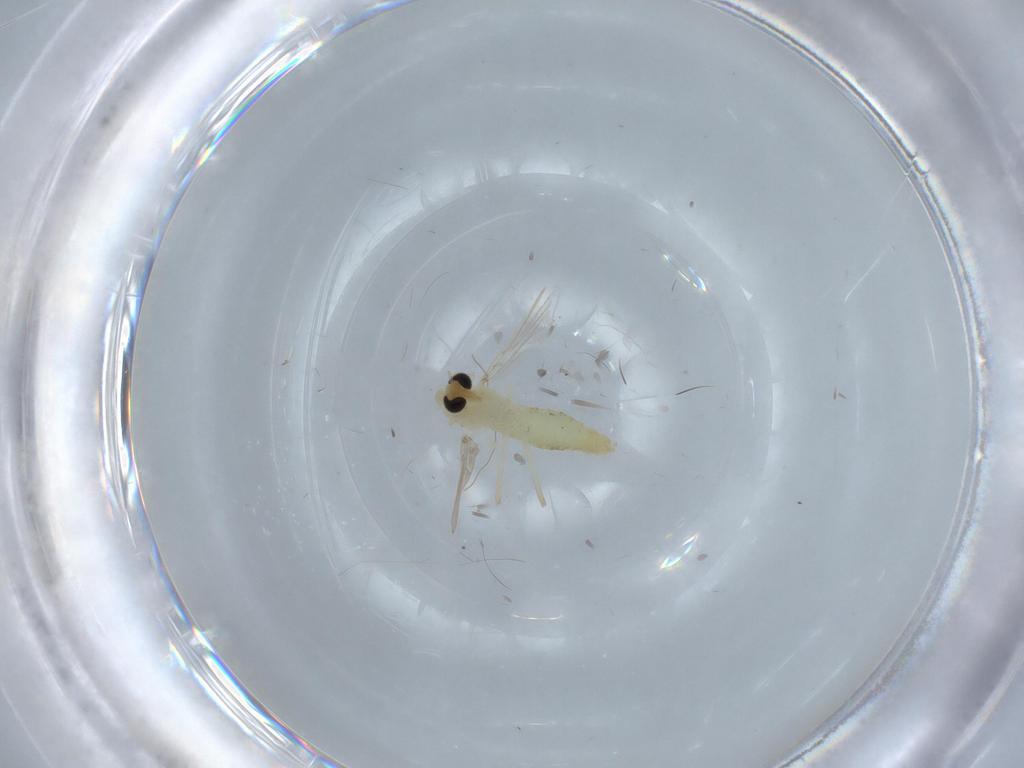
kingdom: Animalia
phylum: Arthropoda
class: Insecta
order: Diptera
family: Chironomidae
